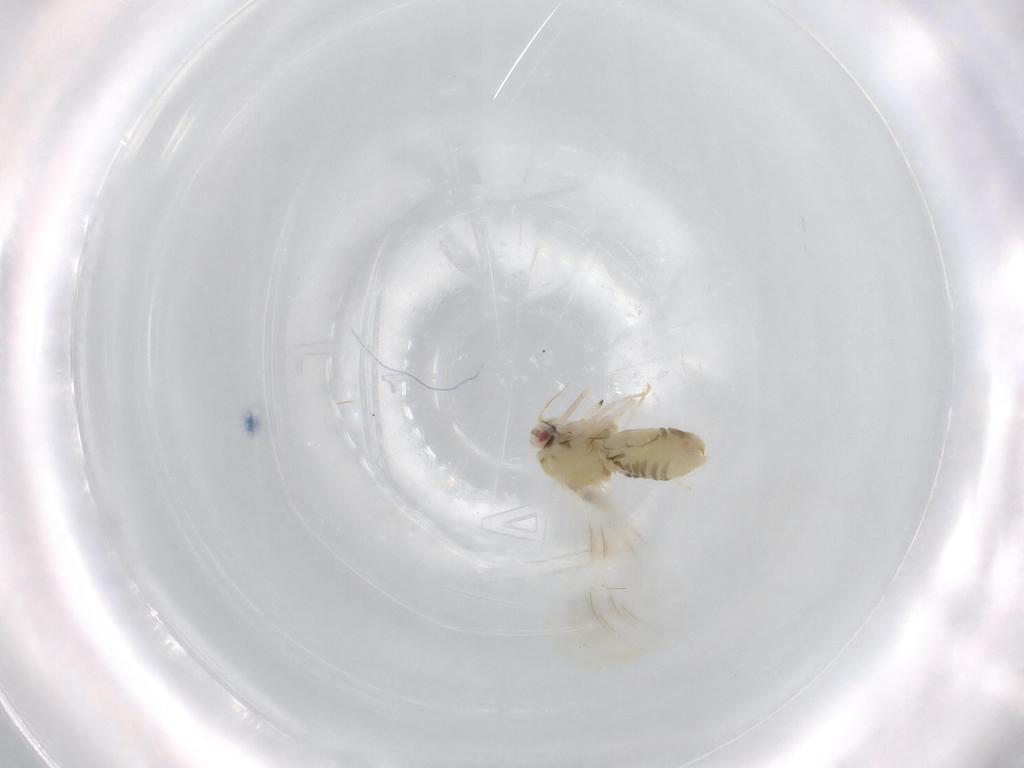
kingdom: Animalia
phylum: Arthropoda
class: Insecta
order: Hemiptera
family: Aleyrodidae
